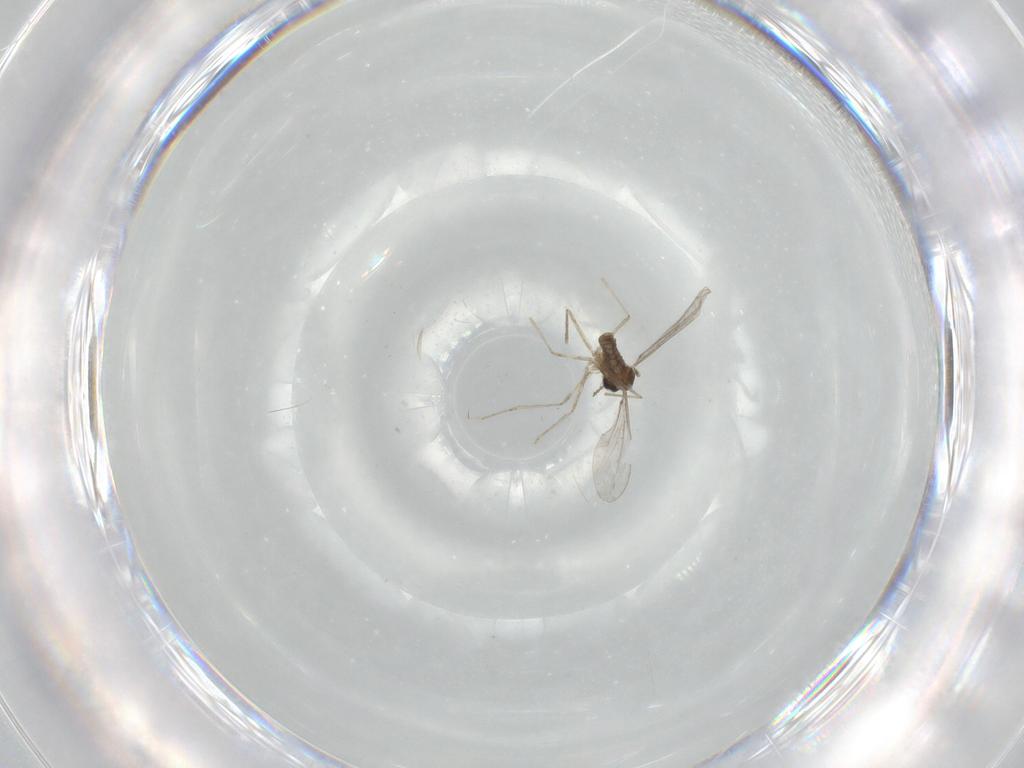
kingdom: Animalia
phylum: Arthropoda
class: Insecta
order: Diptera
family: Cecidomyiidae
